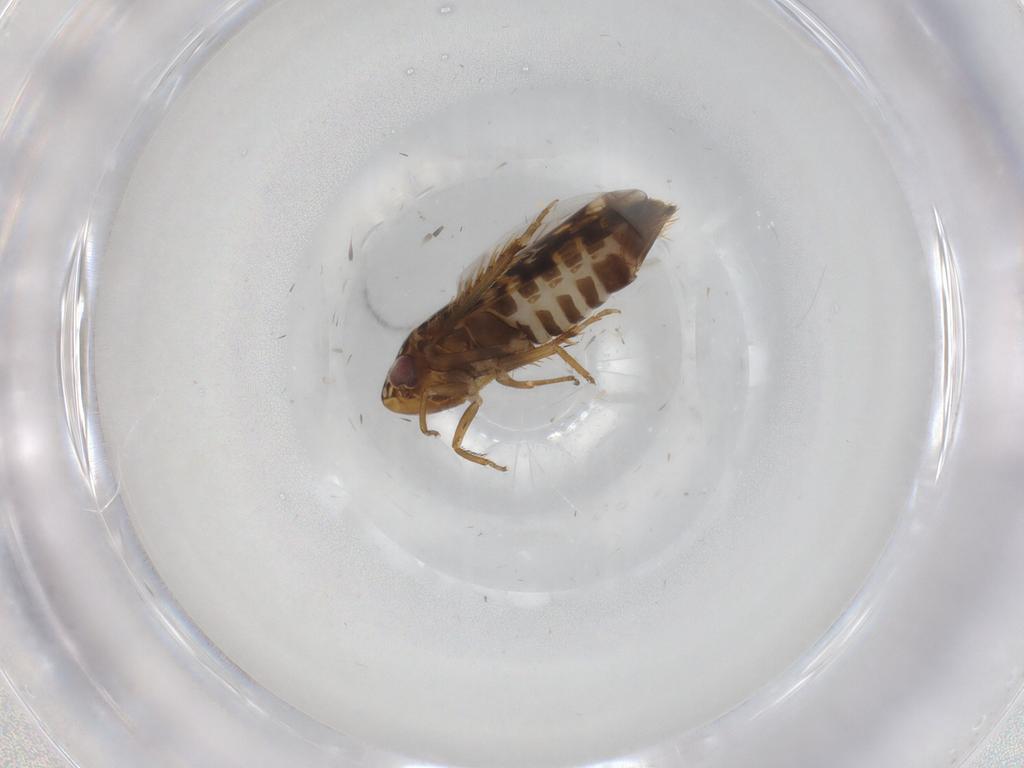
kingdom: Animalia
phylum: Arthropoda
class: Insecta
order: Hemiptera
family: Cicadellidae
